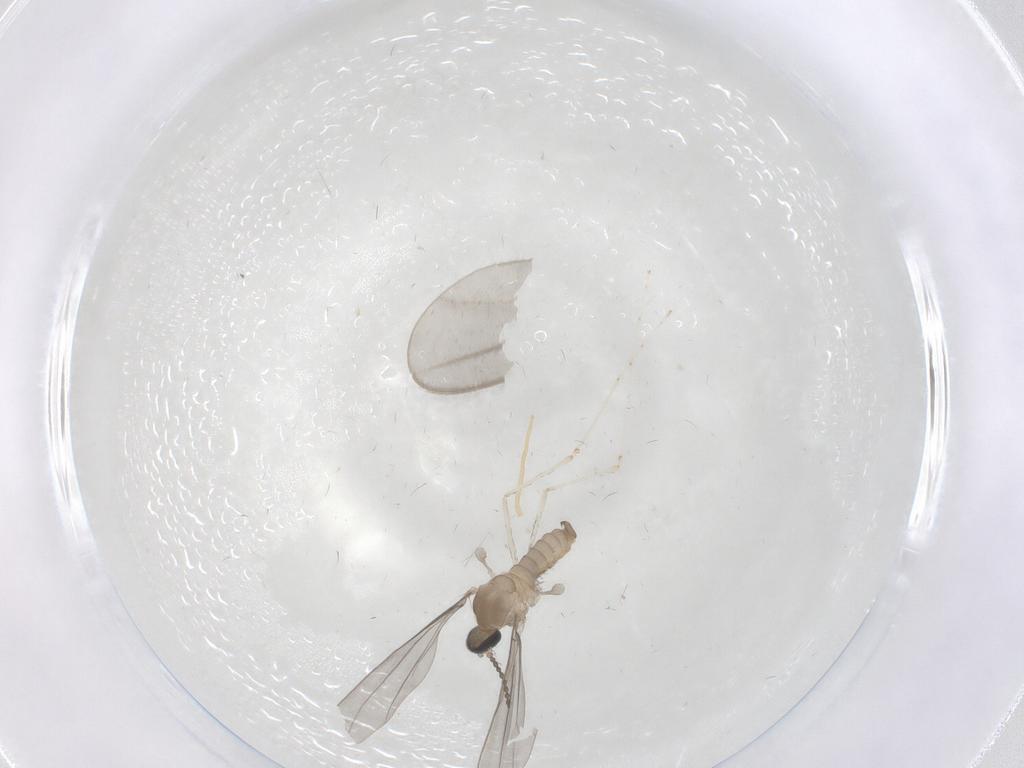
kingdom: Animalia
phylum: Arthropoda
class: Insecta
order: Diptera
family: Cecidomyiidae
